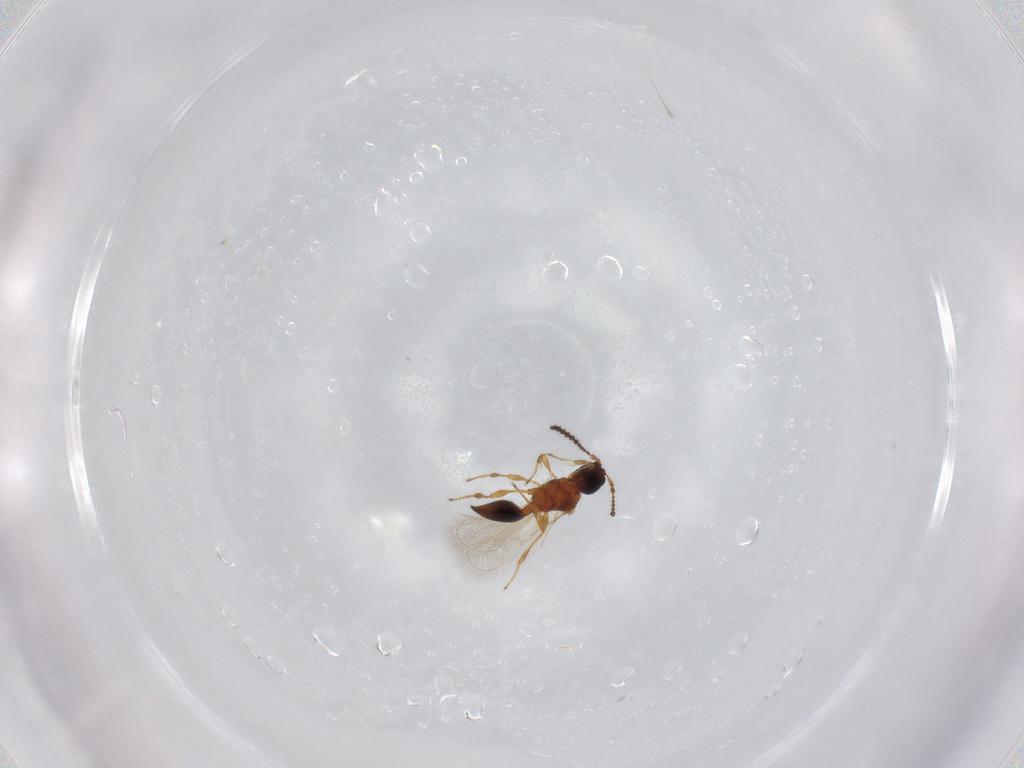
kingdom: Animalia
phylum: Arthropoda
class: Insecta
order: Hymenoptera
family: Diapriidae
